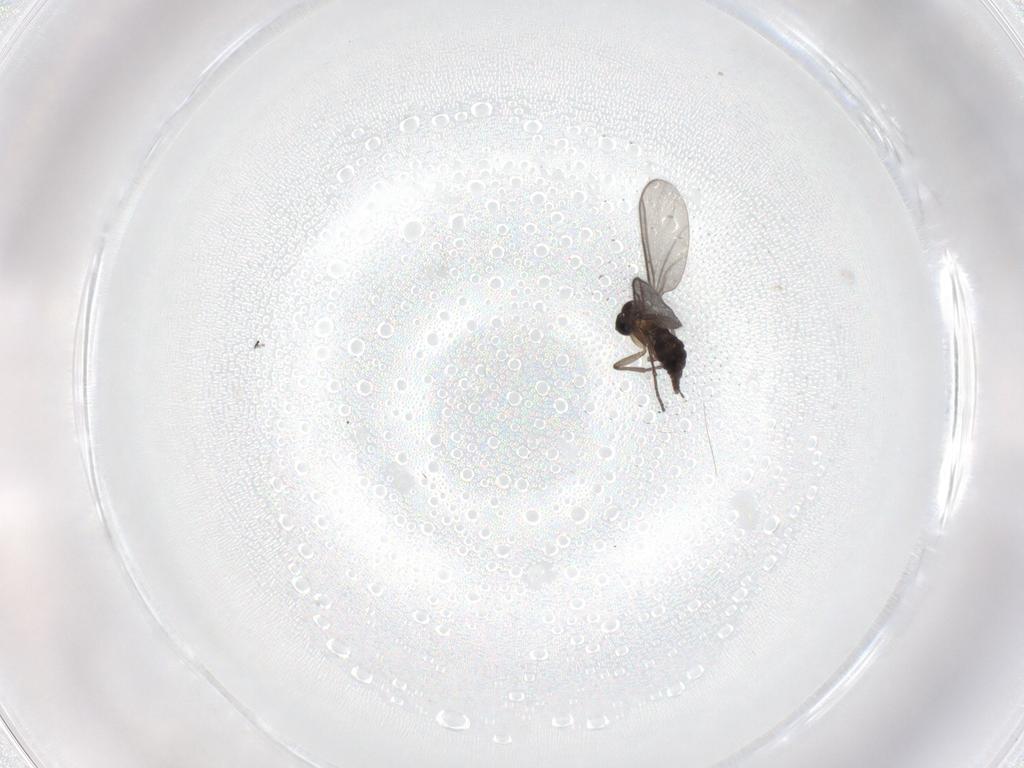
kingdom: Animalia
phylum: Arthropoda
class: Insecta
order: Diptera
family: Sciaridae
